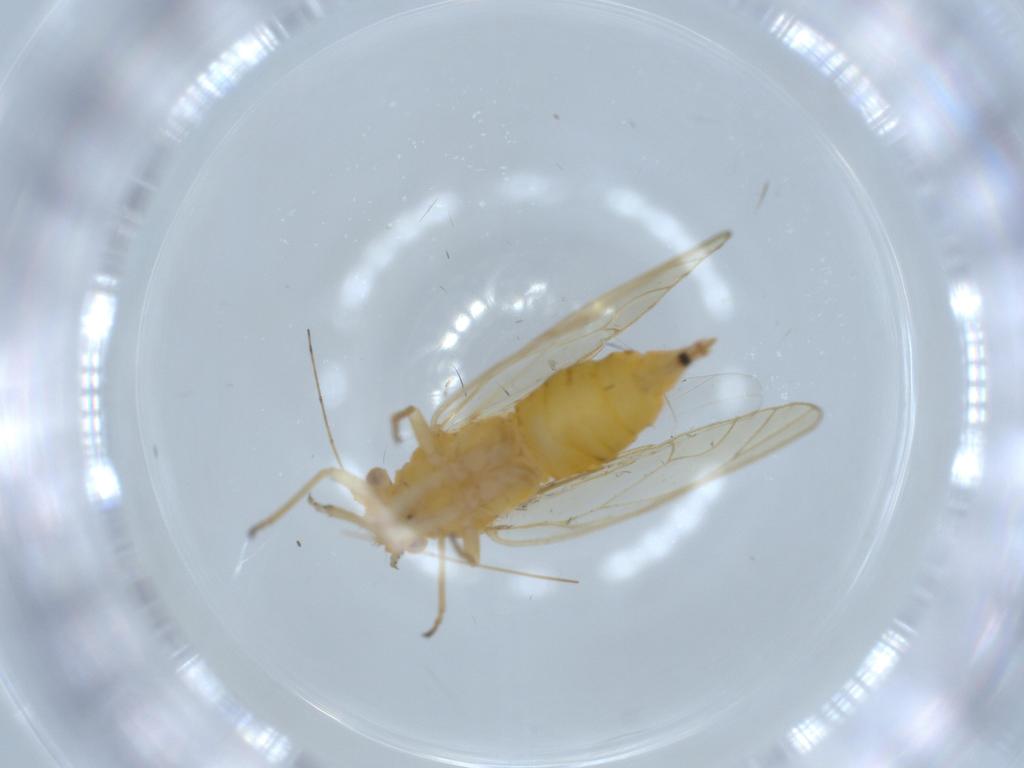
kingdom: Animalia
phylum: Arthropoda
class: Insecta
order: Hemiptera
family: Psyllidae
